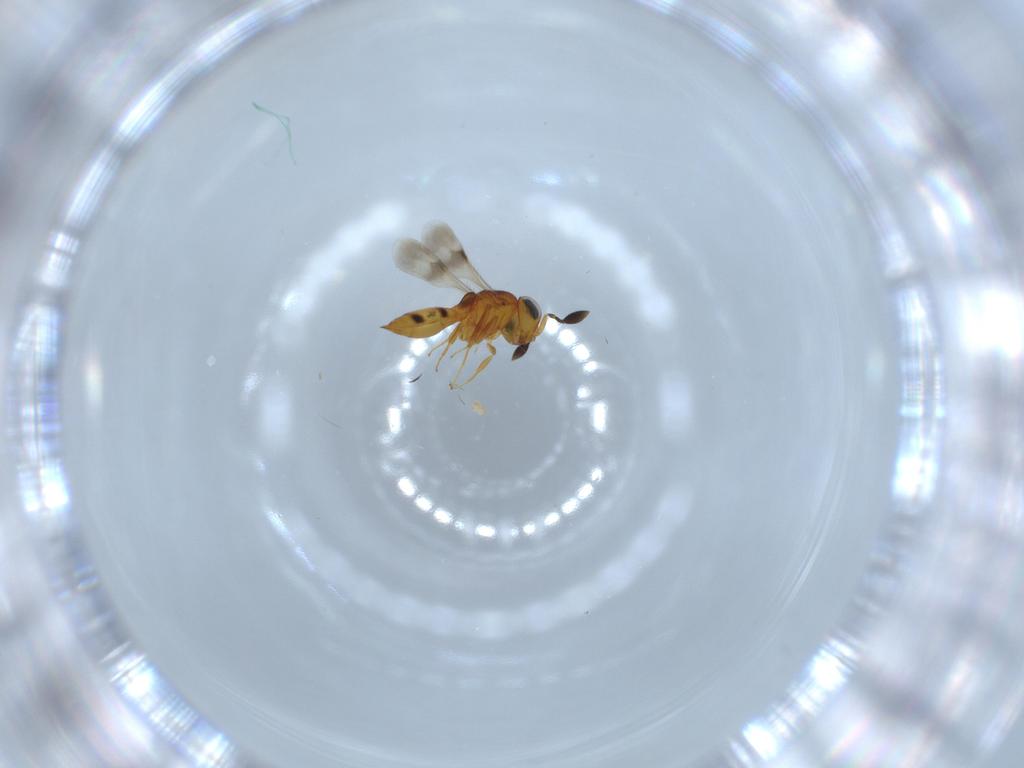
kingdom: Animalia
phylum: Arthropoda
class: Insecta
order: Hymenoptera
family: Scelionidae
